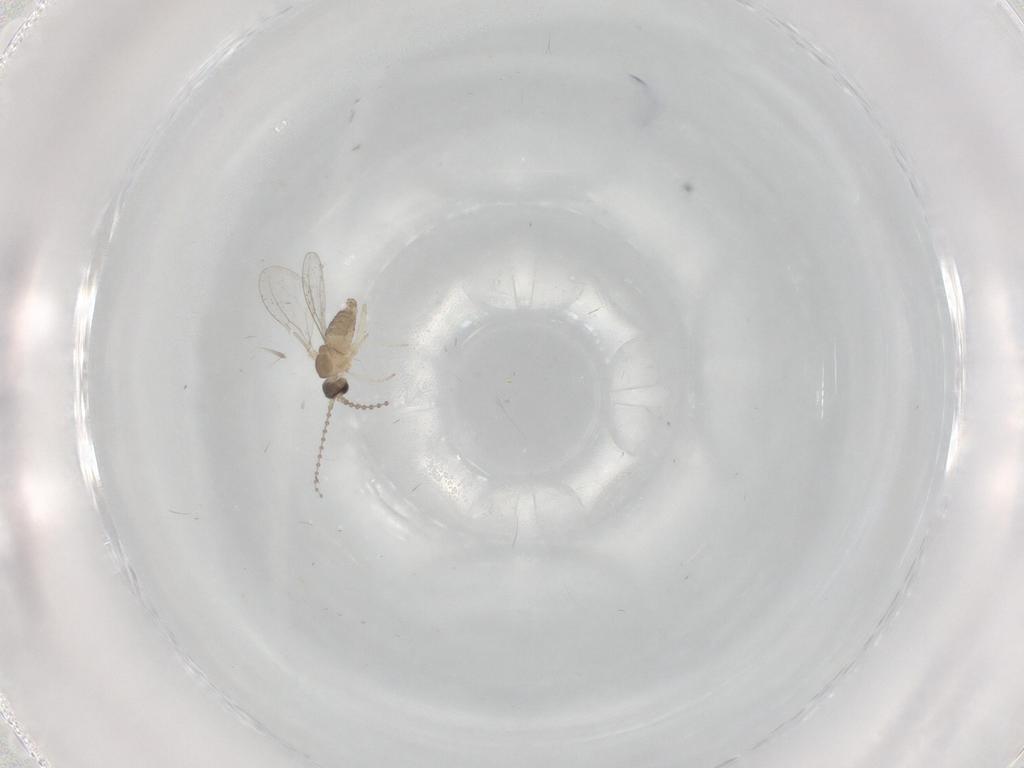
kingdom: Animalia
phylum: Arthropoda
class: Insecta
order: Diptera
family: Cecidomyiidae
